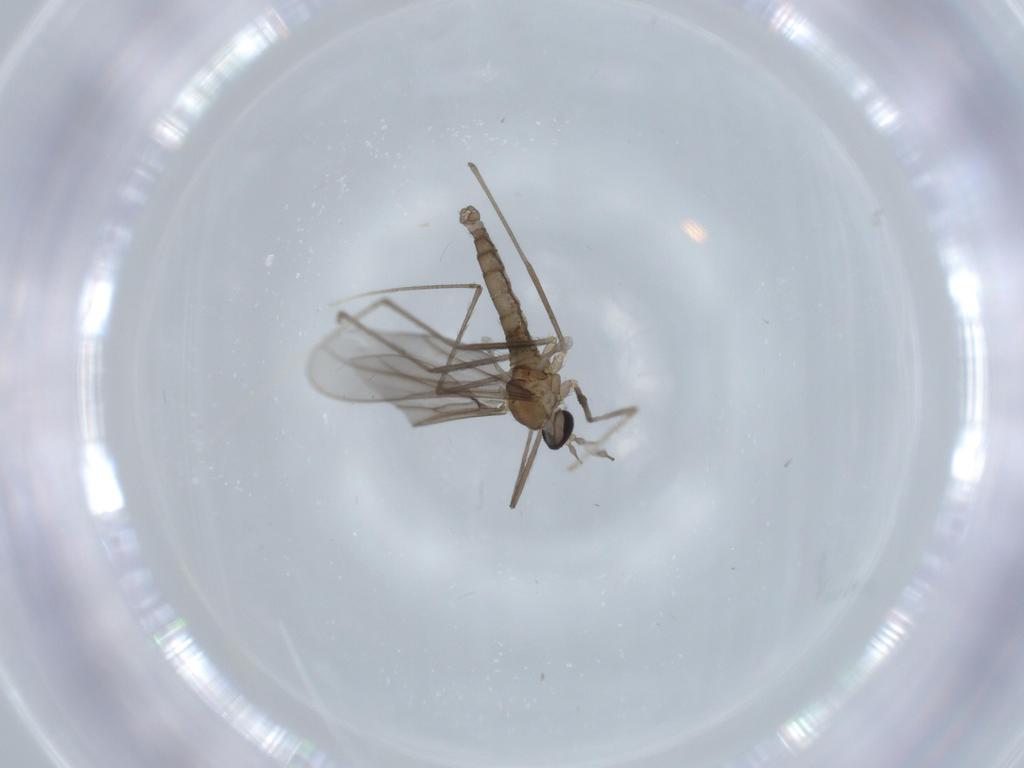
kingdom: Animalia
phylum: Arthropoda
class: Insecta
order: Diptera
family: Cecidomyiidae
